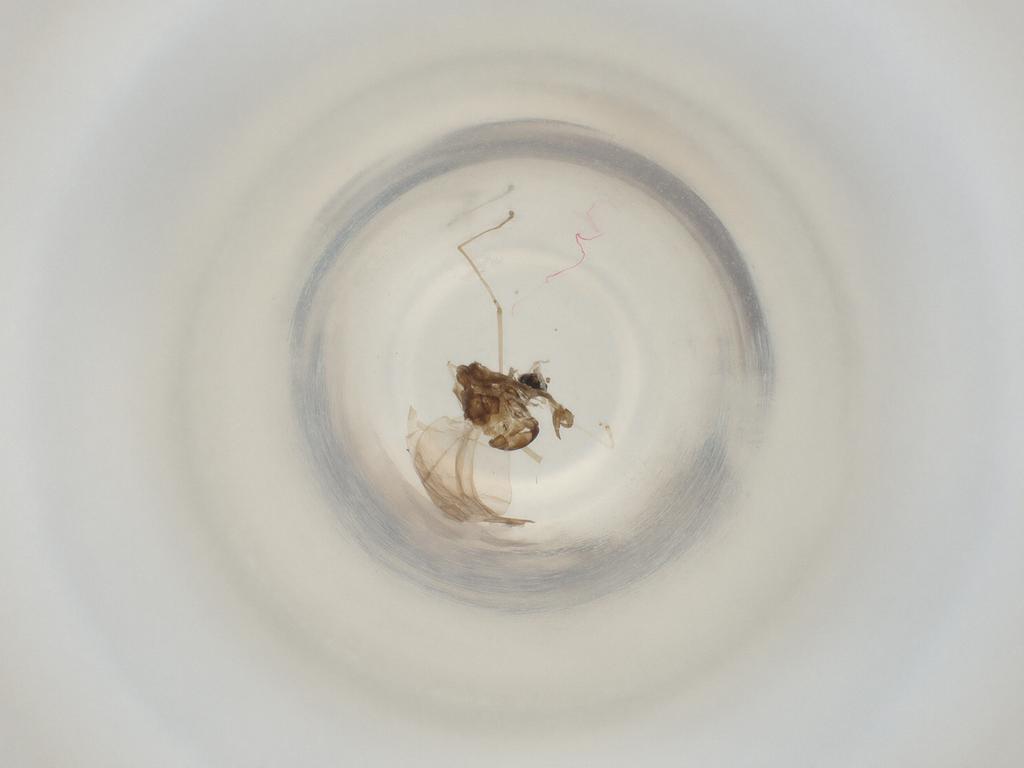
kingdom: Animalia
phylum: Arthropoda
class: Insecta
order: Diptera
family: Cecidomyiidae
